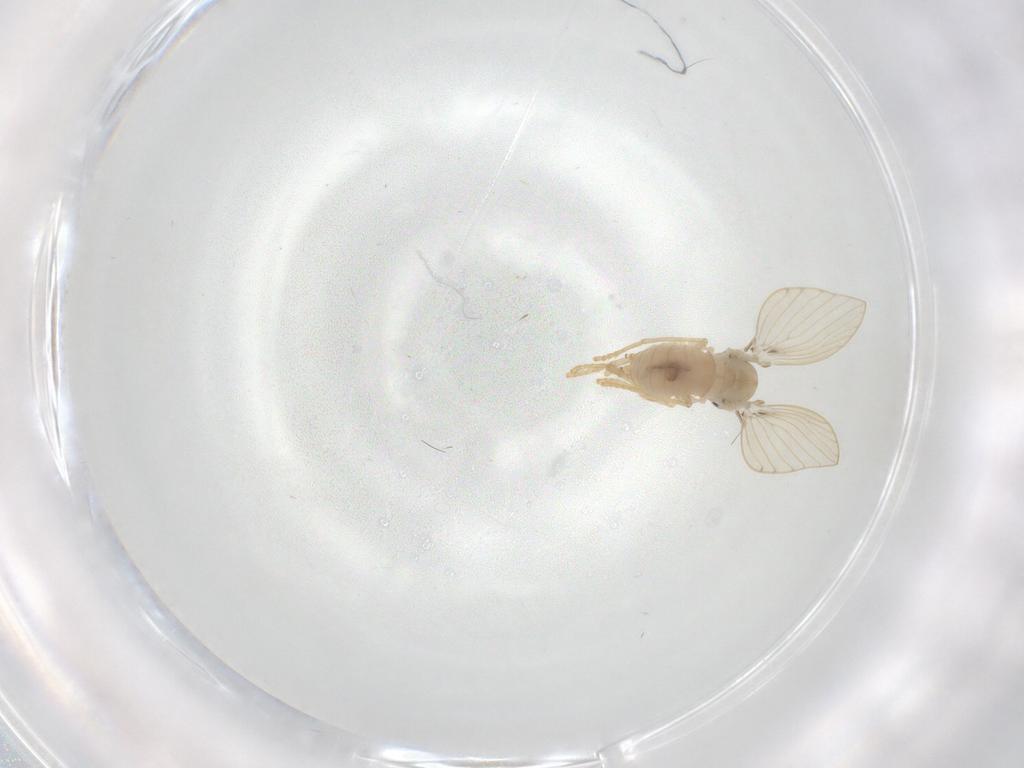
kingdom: Animalia
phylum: Arthropoda
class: Insecta
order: Diptera
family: Psychodidae
